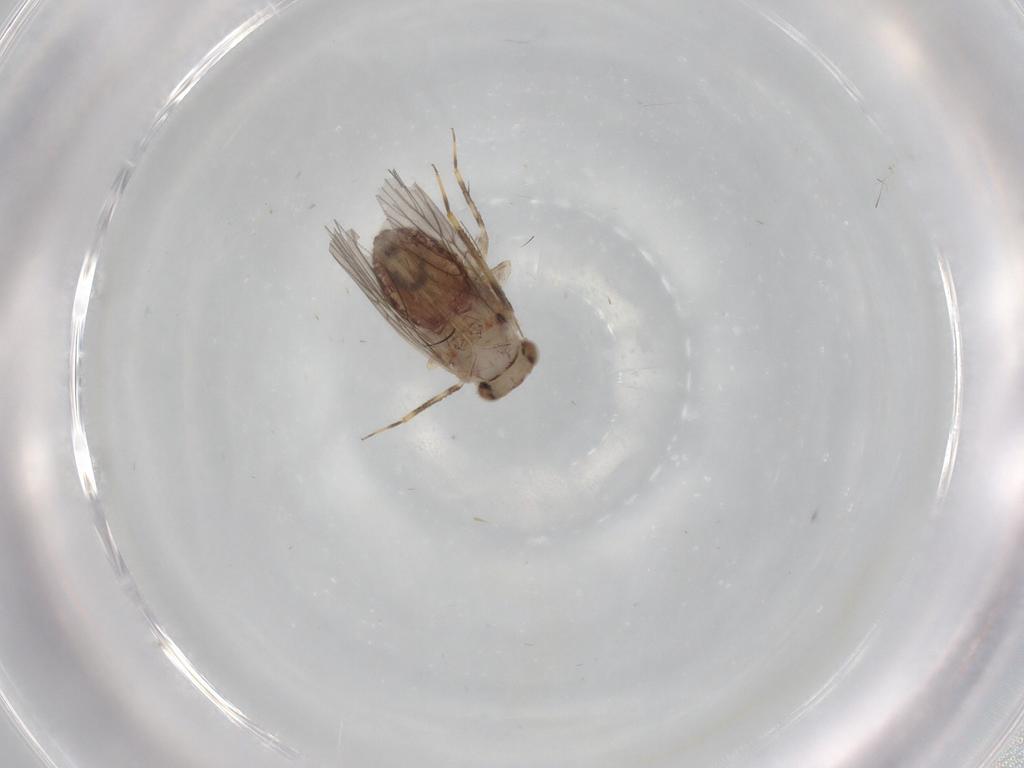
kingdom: Animalia
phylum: Arthropoda
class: Insecta
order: Psocodea
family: Lepidopsocidae
